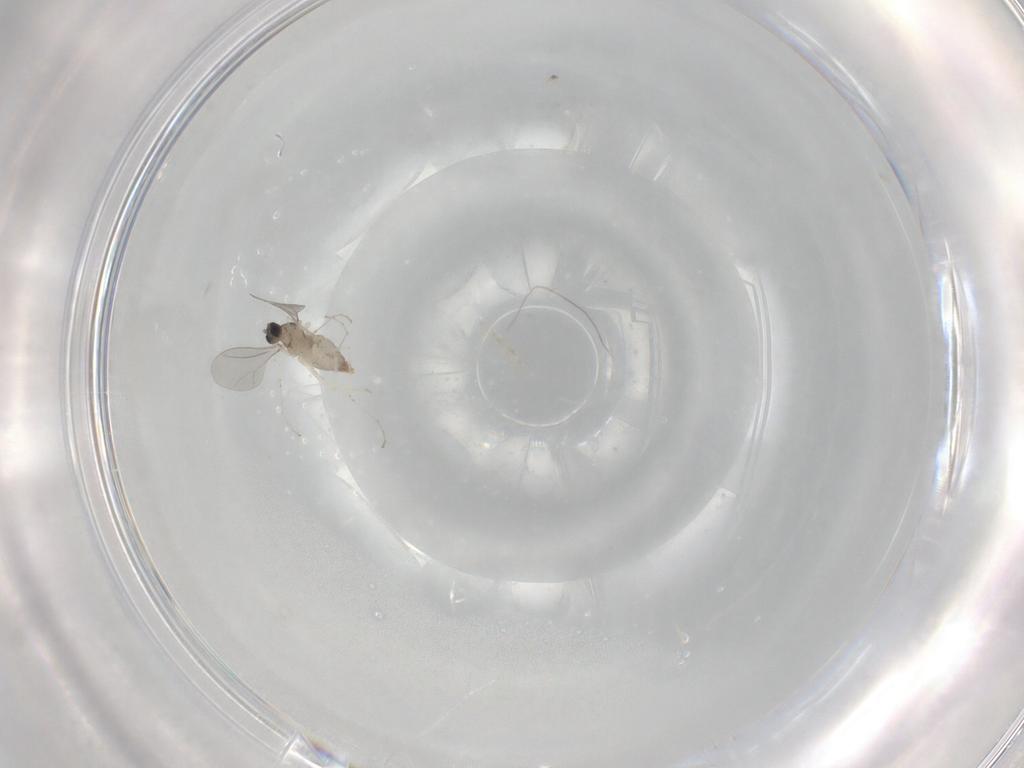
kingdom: Animalia
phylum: Arthropoda
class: Insecta
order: Diptera
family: Cecidomyiidae
